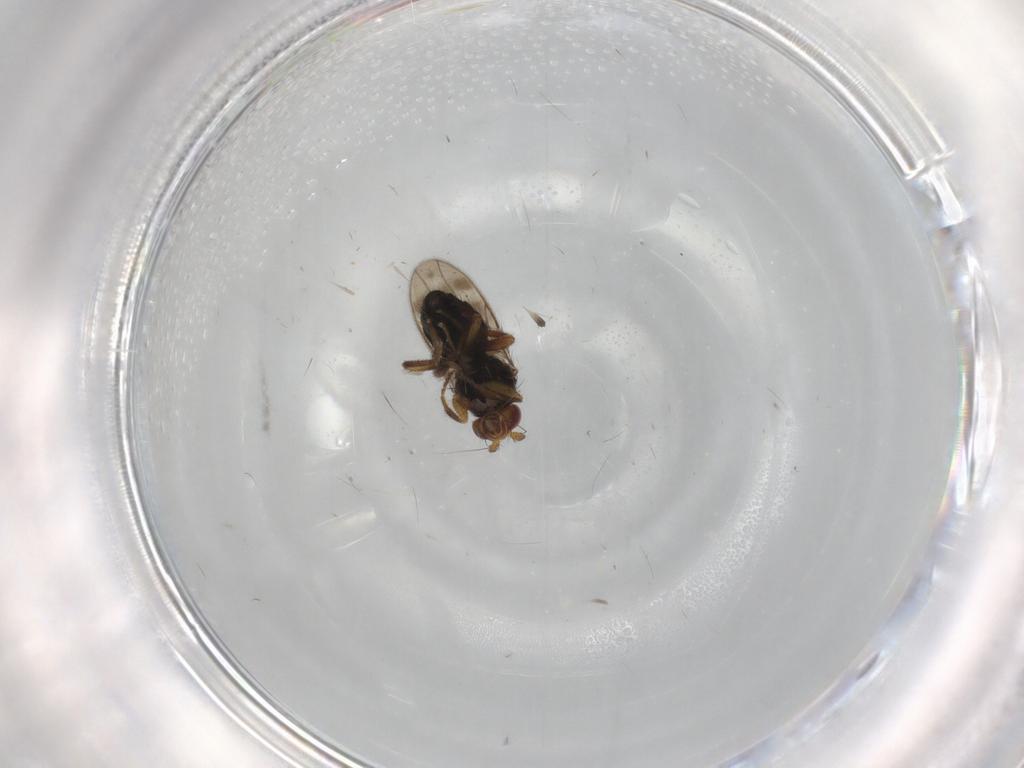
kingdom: Animalia
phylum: Arthropoda
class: Insecta
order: Diptera
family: Sphaeroceridae
